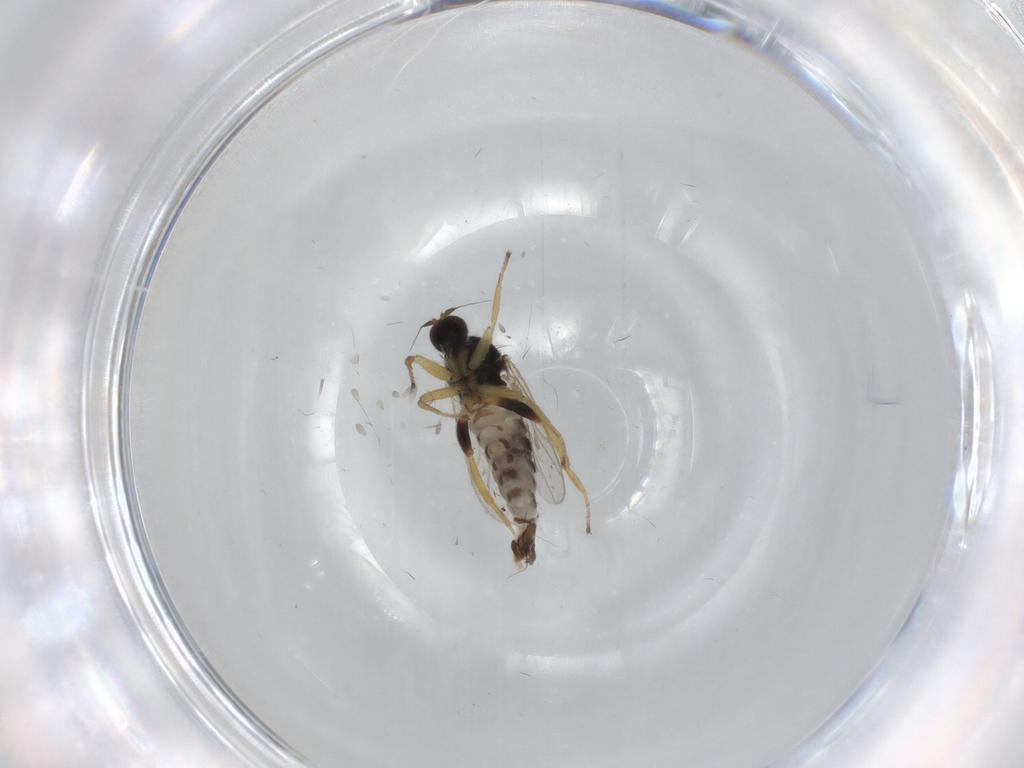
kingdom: Animalia
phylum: Arthropoda
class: Insecta
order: Diptera
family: Hybotidae
